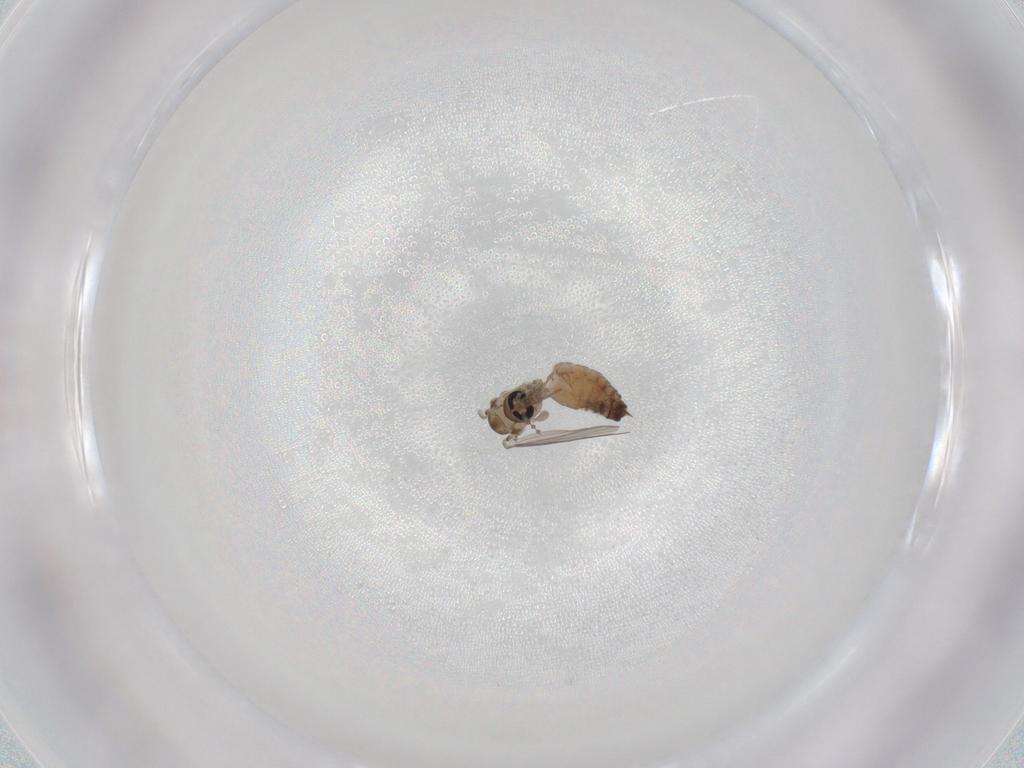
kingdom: Animalia
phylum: Arthropoda
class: Insecta
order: Diptera
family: Psychodidae
